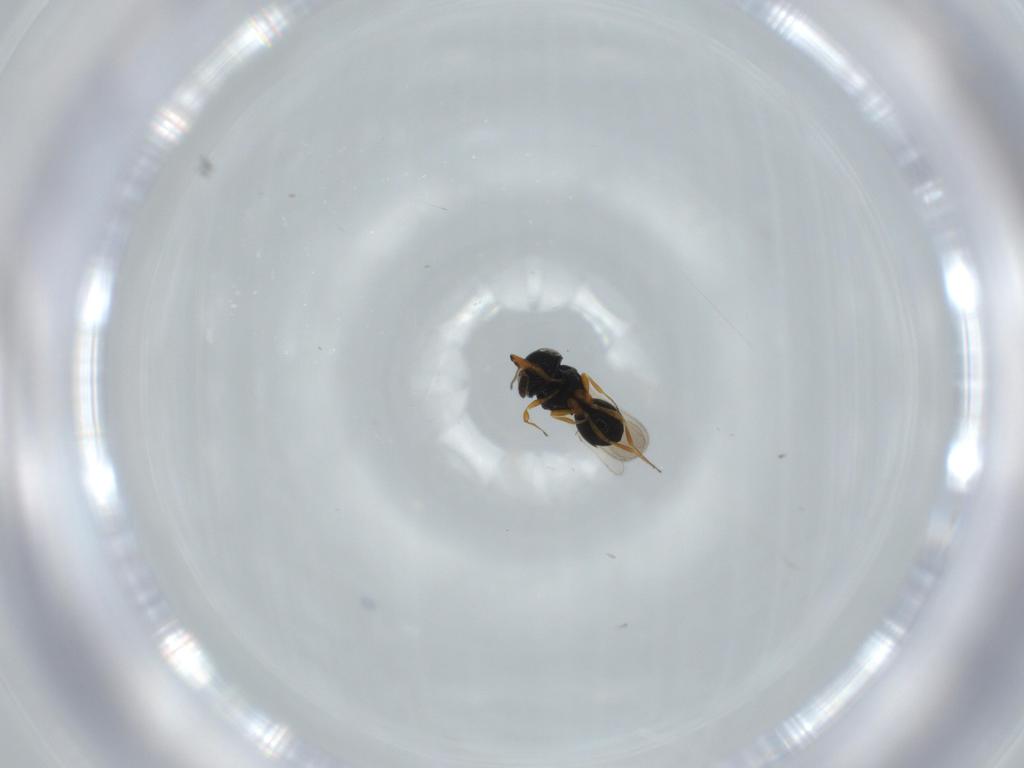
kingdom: Animalia
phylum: Arthropoda
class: Insecta
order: Hymenoptera
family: Scelionidae
